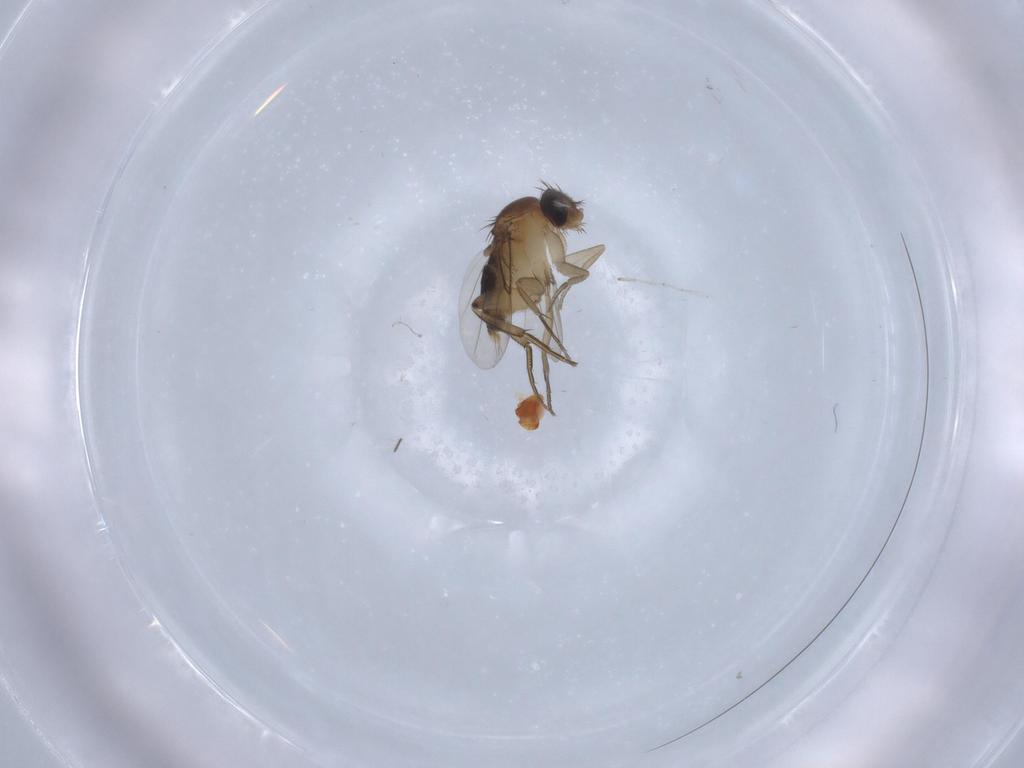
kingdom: Animalia
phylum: Arthropoda
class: Insecta
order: Diptera
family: Phoridae
